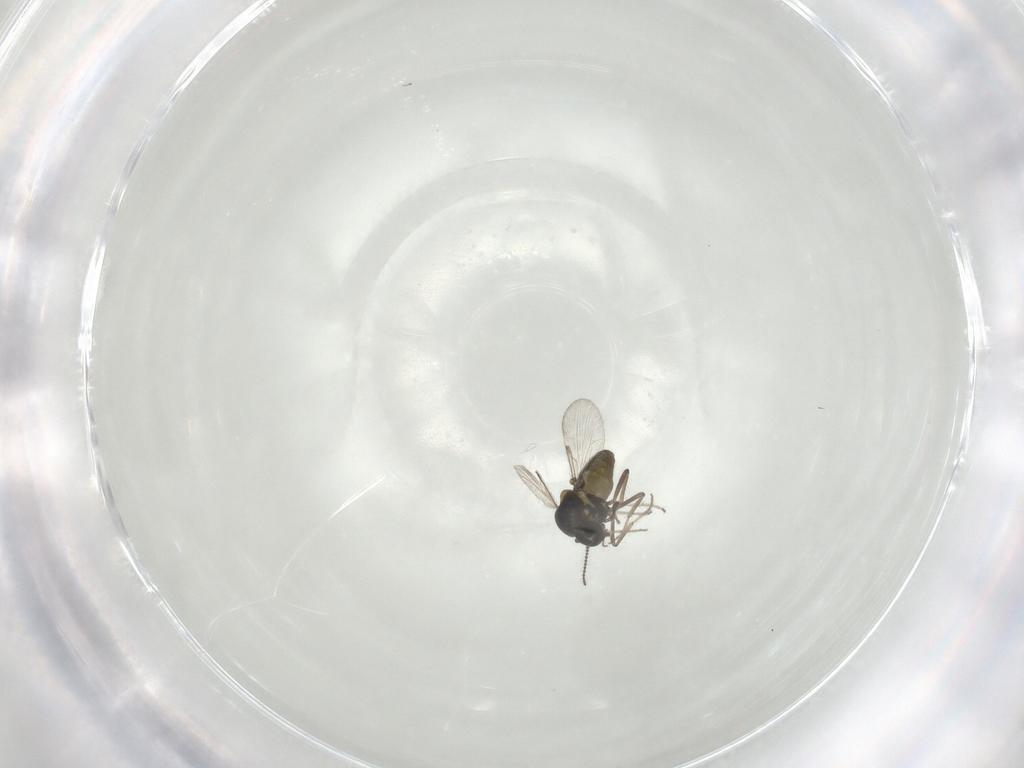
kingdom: Animalia
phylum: Arthropoda
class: Insecta
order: Diptera
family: Ceratopogonidae
